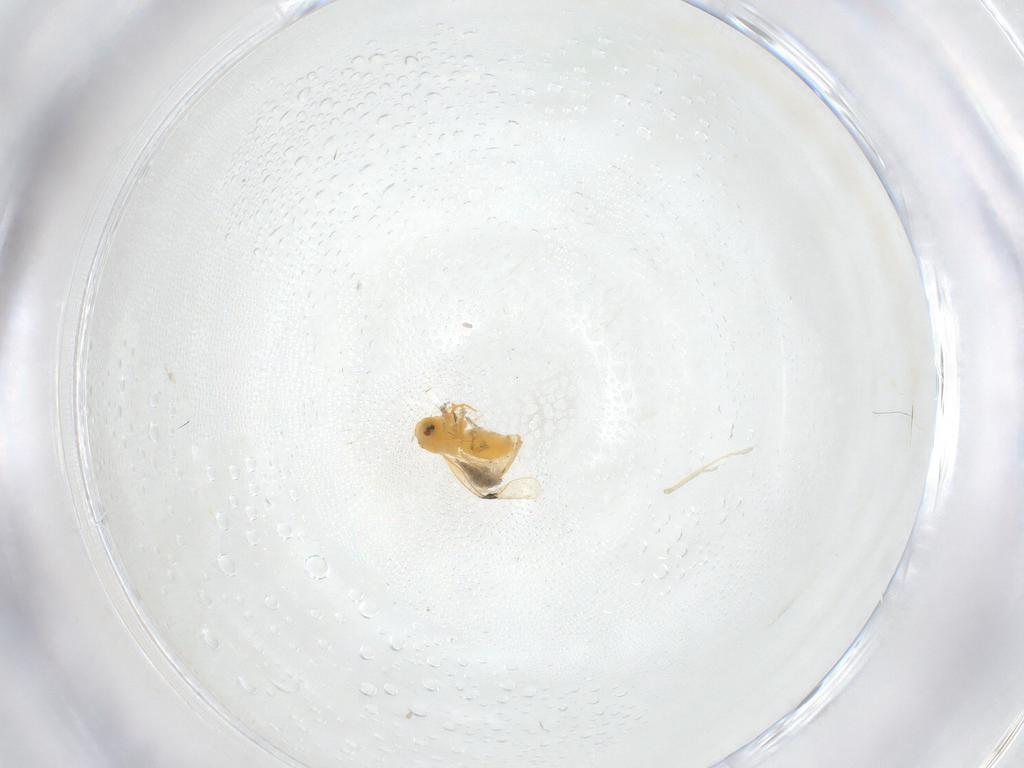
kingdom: Animalia
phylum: Arthropoda
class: Insecta
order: Hemiptera
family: Aleyrodidae
